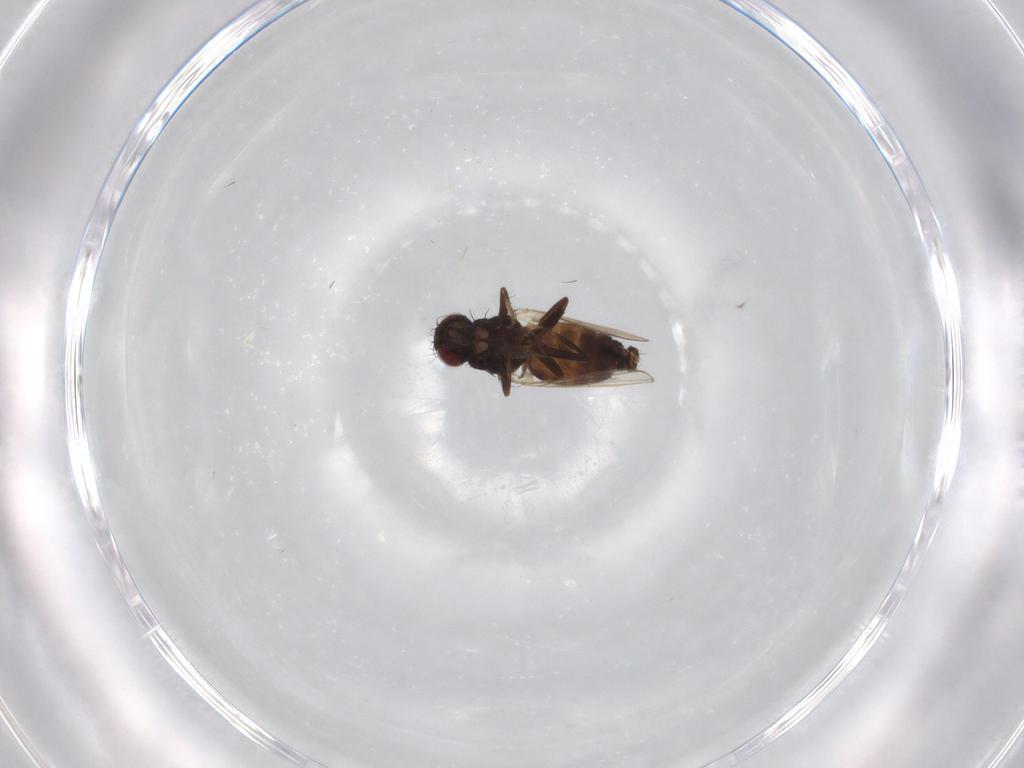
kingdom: Animalia
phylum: Arthropoda
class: Insecta
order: Diptera
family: Carnidae
